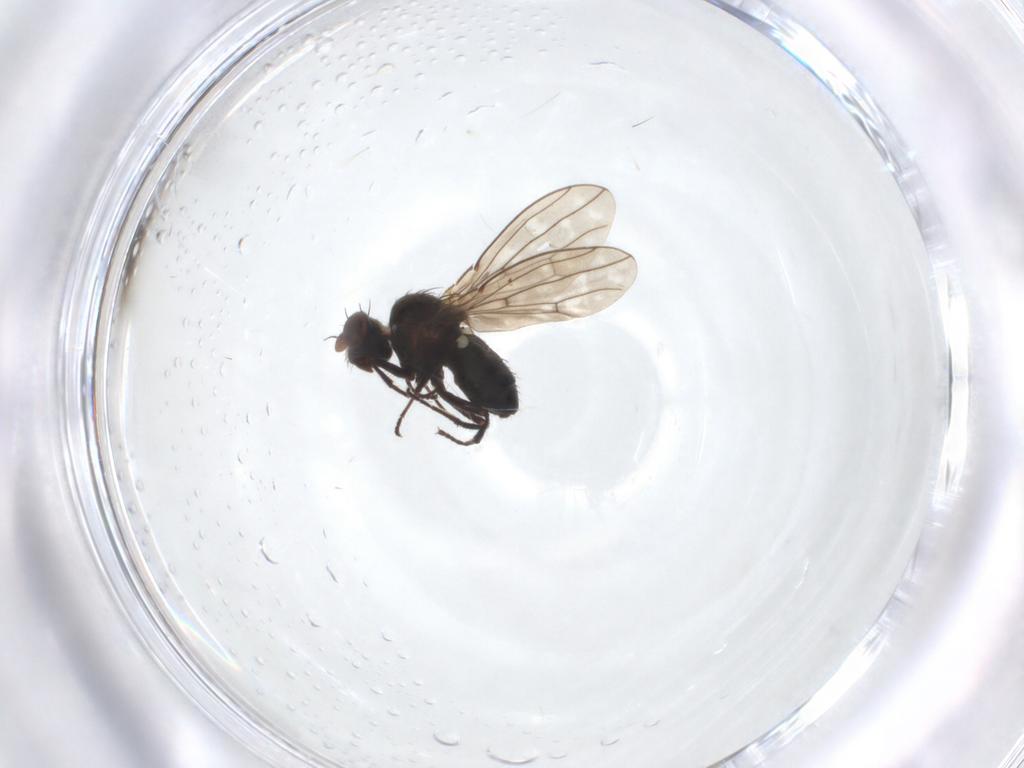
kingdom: Animalia
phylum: Arthropoda
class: Insecta
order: Diptera
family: Ephydridae
